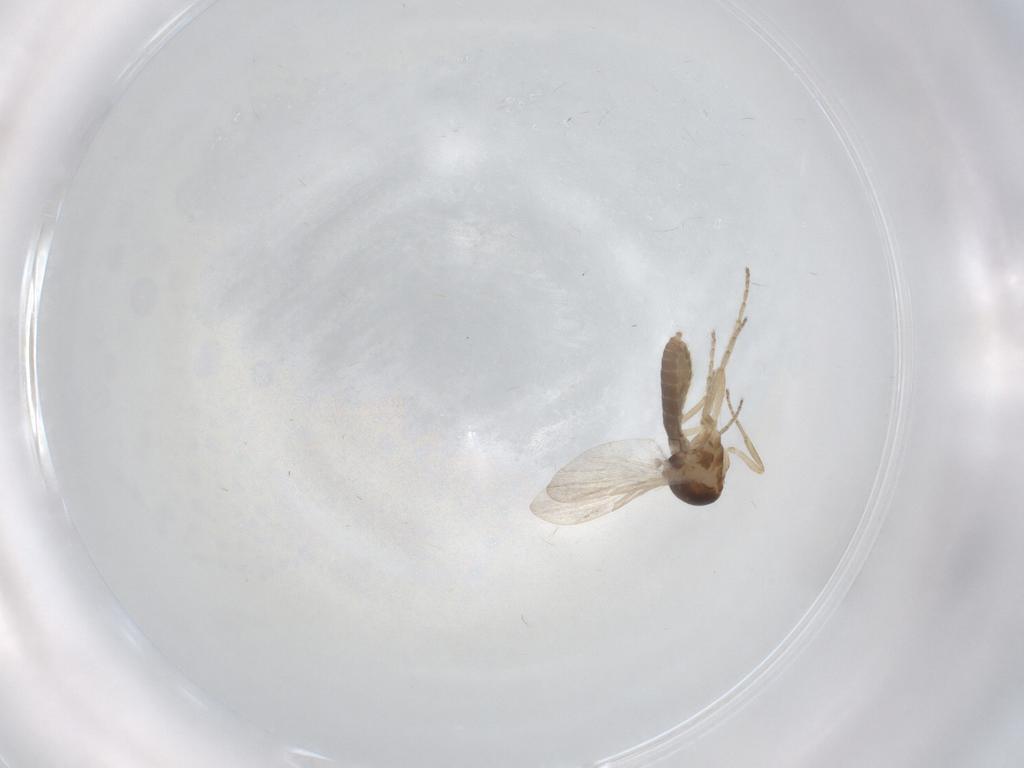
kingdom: Animalia
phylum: Arthropoda
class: Insecta
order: Diptera
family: Ceratopogonidae
